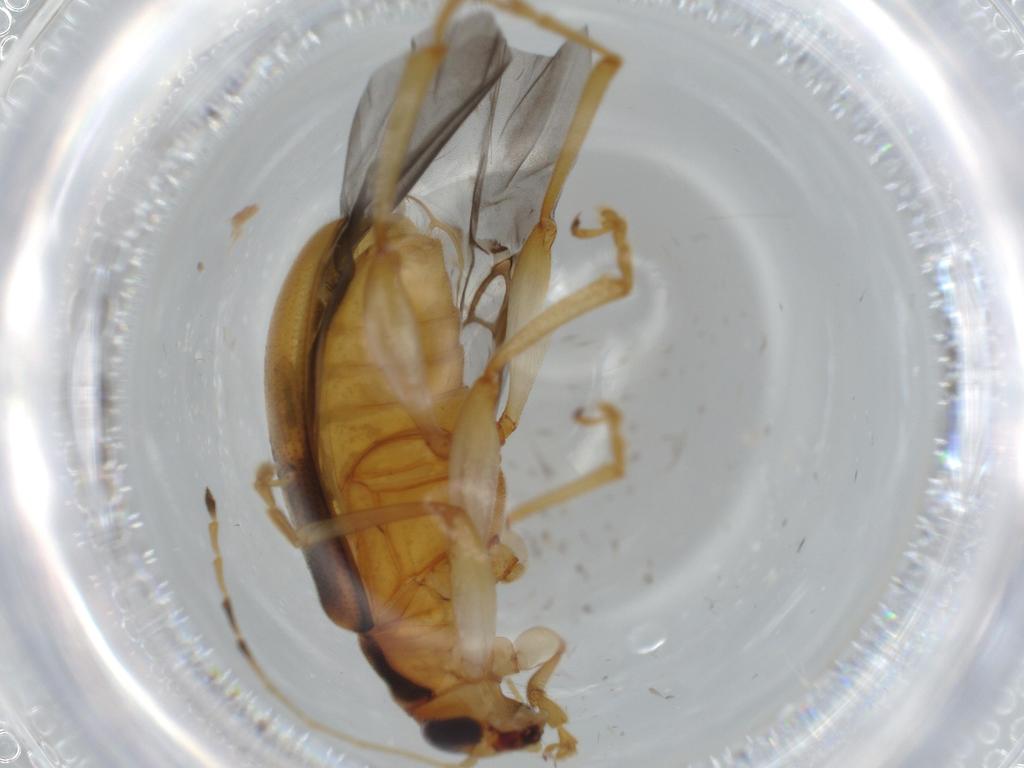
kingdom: Animalia
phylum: Arthropoda
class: Insecta
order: Coleoptera
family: Chrysomelidae
